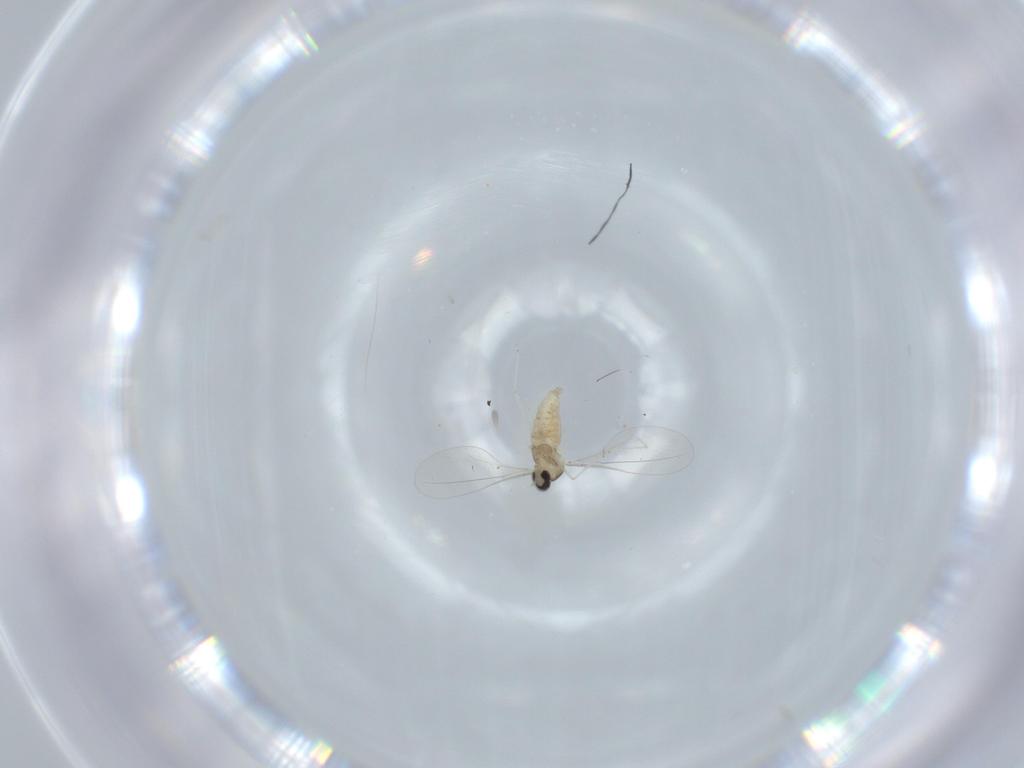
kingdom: Animalia
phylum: Arthropoda
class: Insecta
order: Diptera
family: Cecidomyiidae
